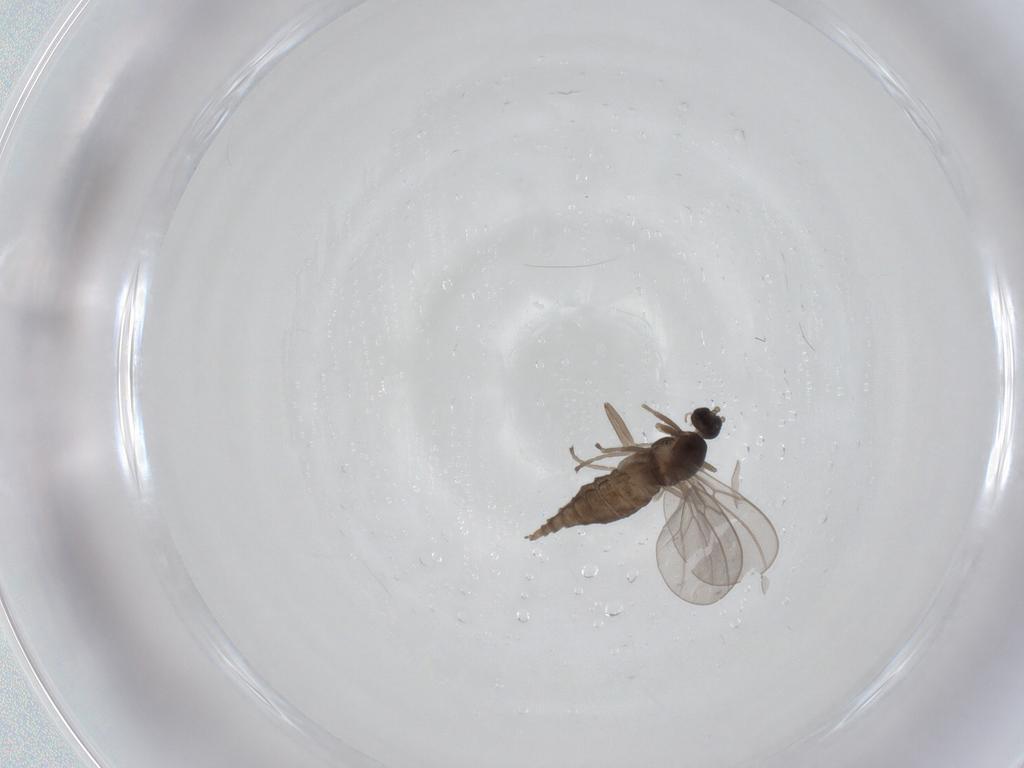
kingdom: Animalia
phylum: Arthropoda
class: Insecta
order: Diptera
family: Cecidomyiidae
